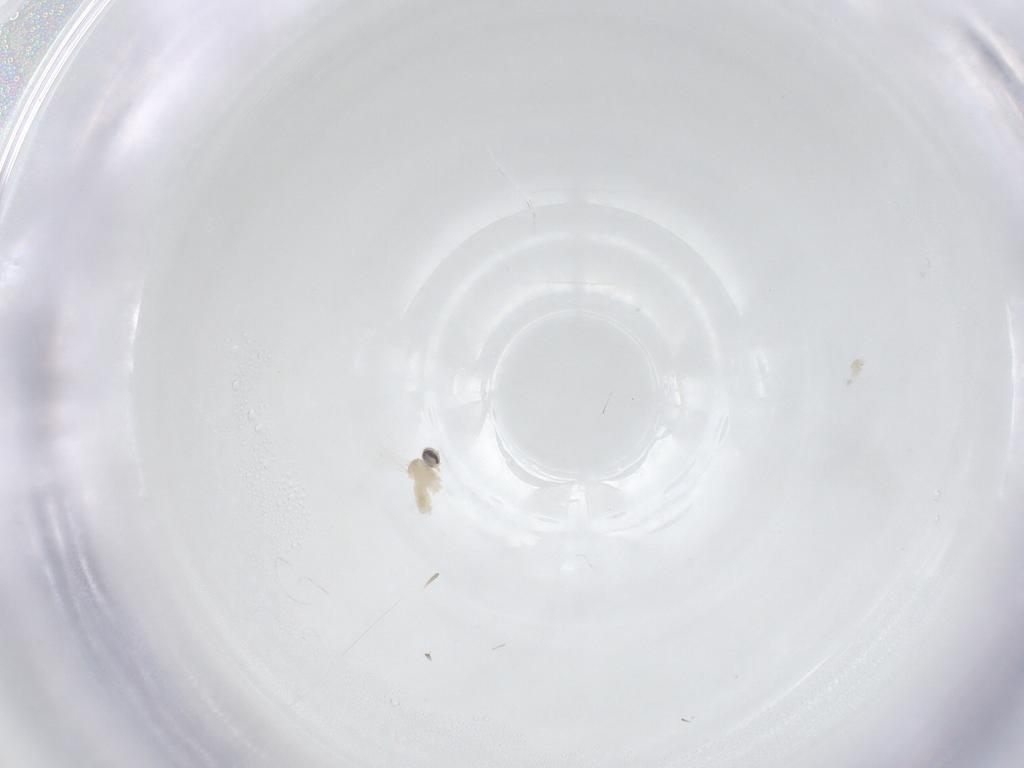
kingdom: Animalia
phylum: Arthropoda
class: Insecta
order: Diptera
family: Cecidomyiidae
